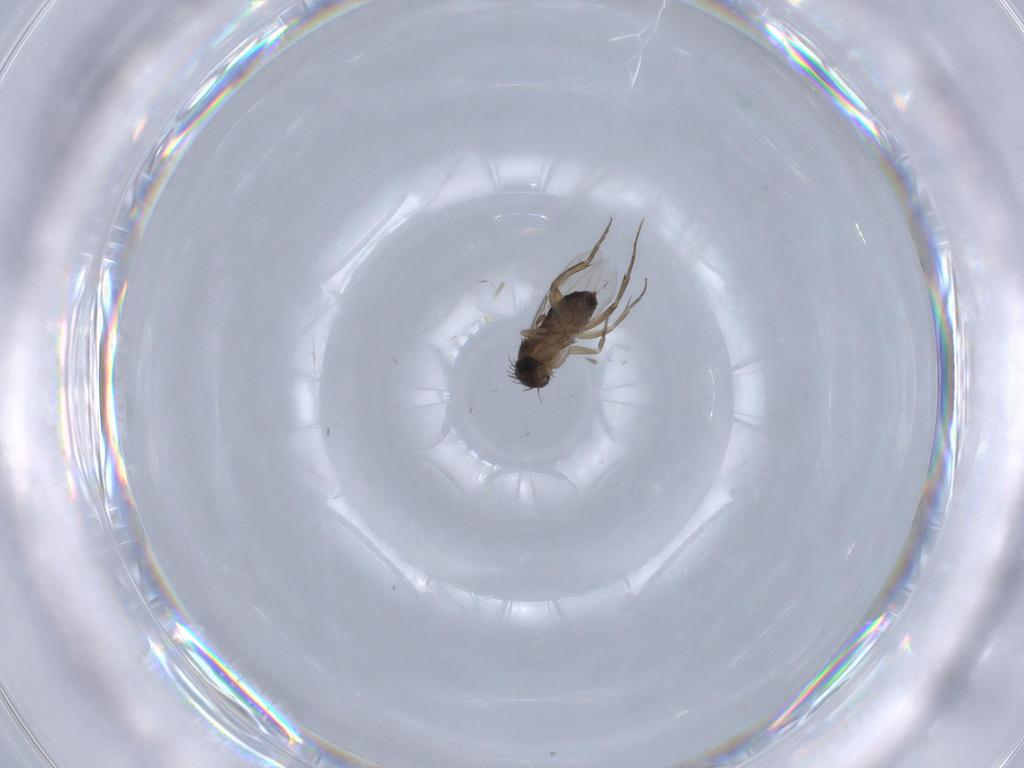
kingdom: Animalia
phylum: Arthropoda
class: Insecta
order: Diptera
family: Phoridae
